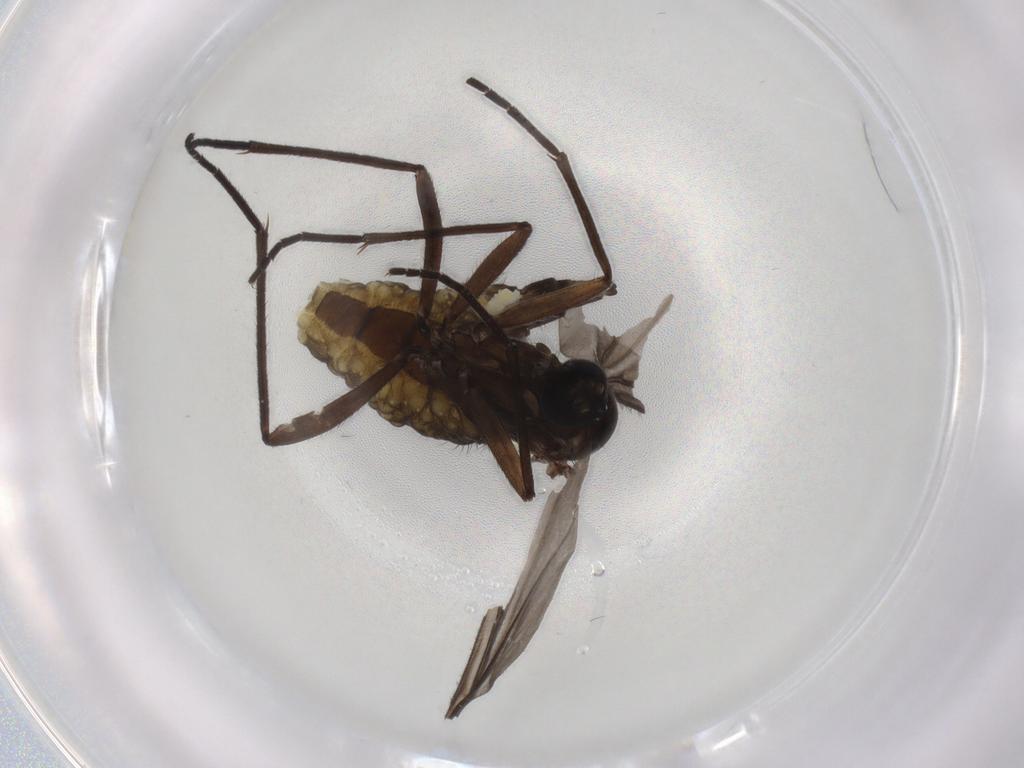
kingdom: Animalia
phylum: Arthropoda
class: Insecta
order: Diptera
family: Sciaridae
